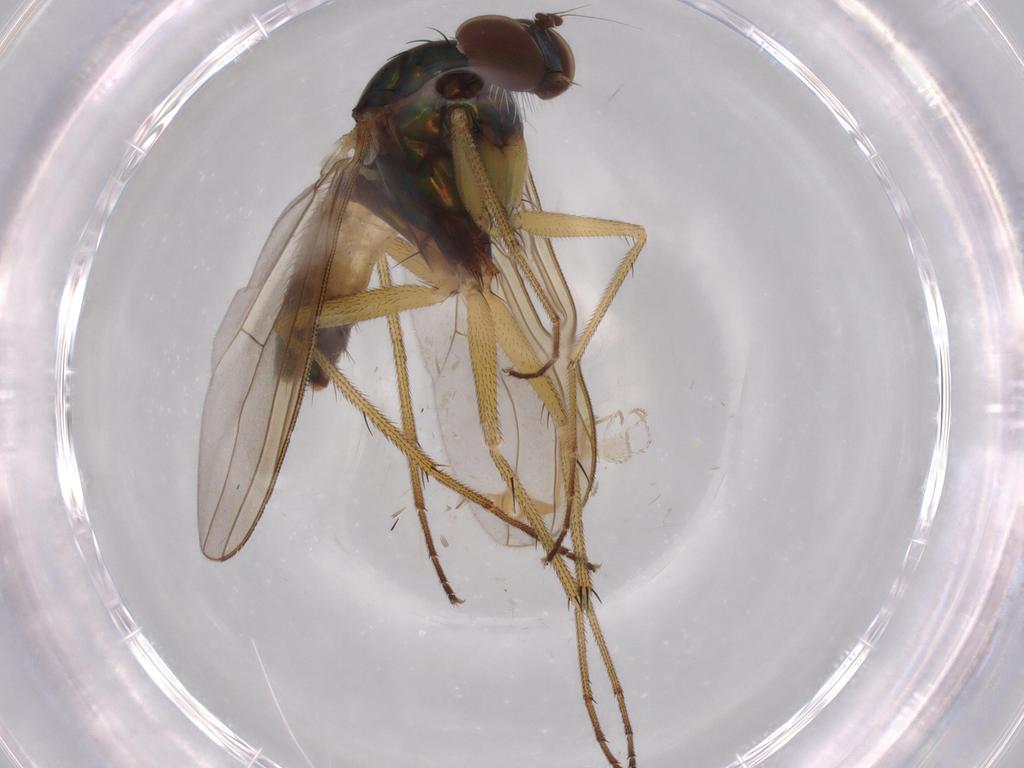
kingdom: Animalia
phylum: Arthropoda
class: Insecta
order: Diptera
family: Dolichopodidae
